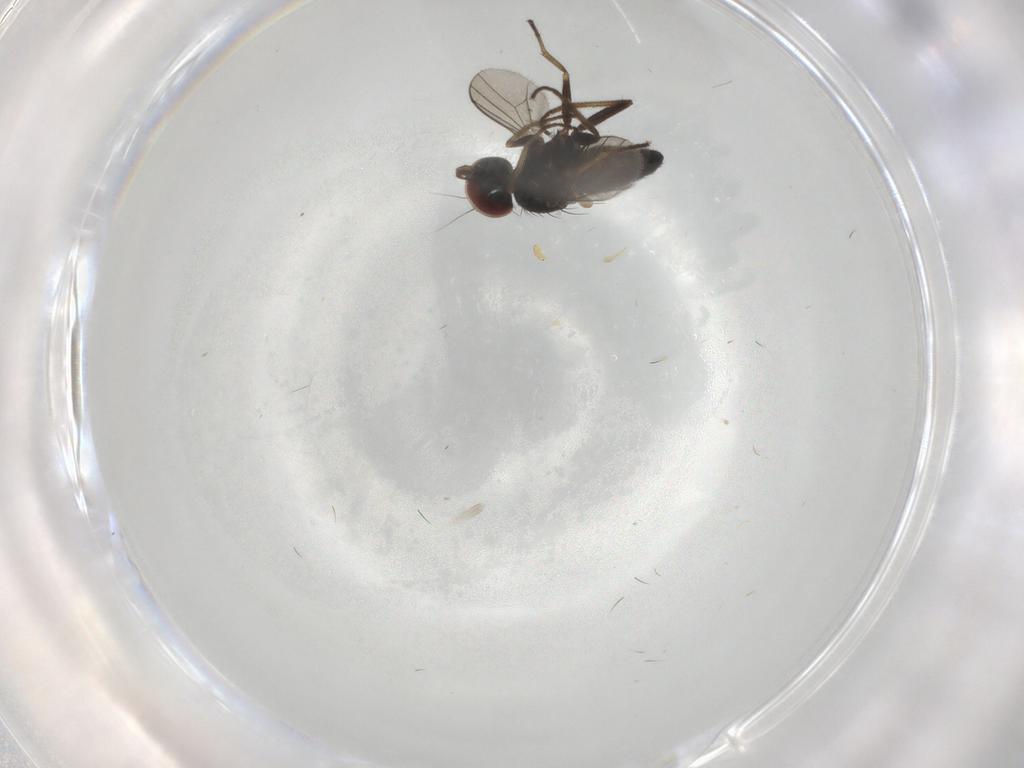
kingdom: Animalia
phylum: Arthropoda
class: Insecta
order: Diptera
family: Dolichopodidae
